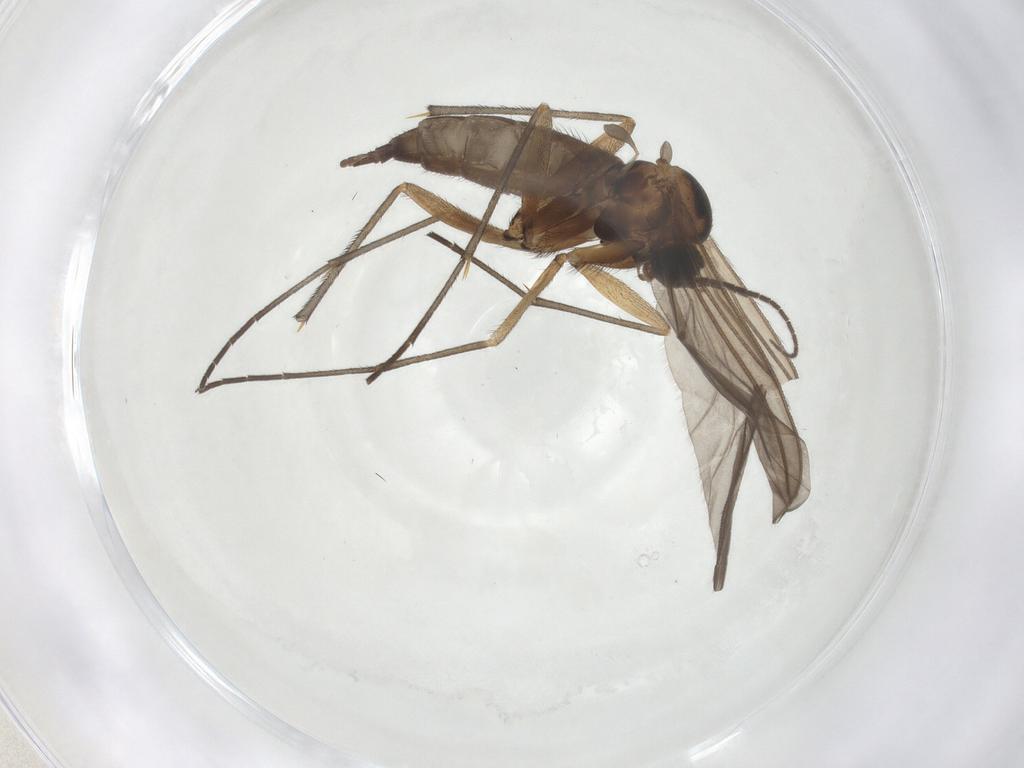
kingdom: Animalia
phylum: Arthropoda
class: Insecta
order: Diptera
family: Sciaridae
